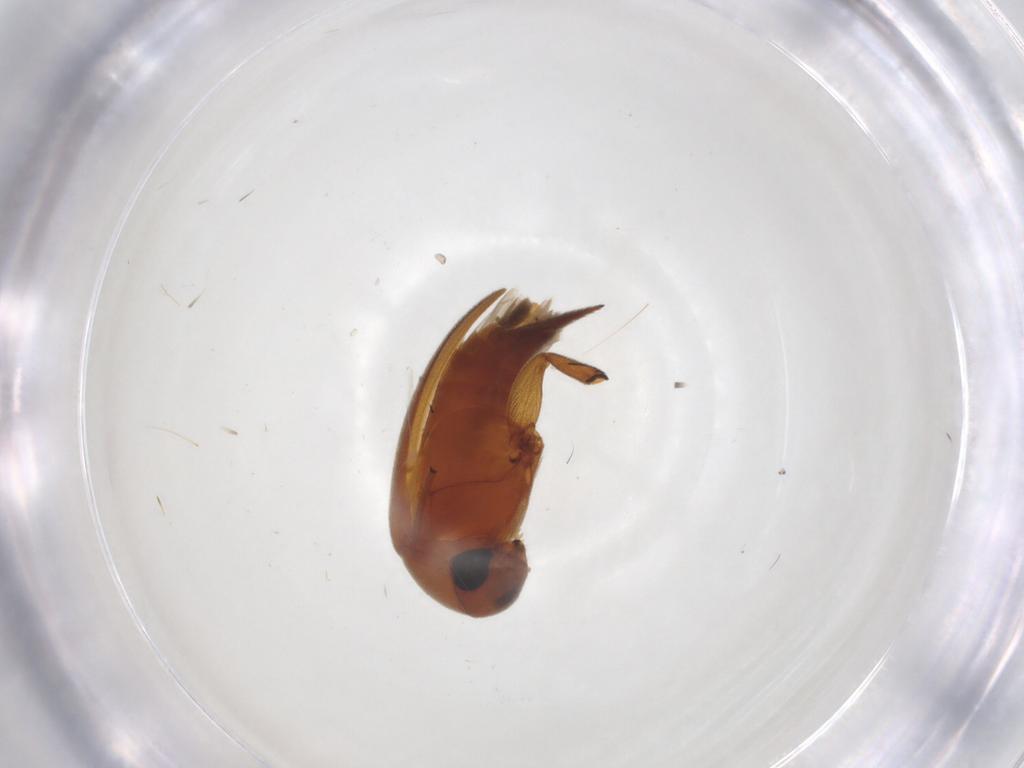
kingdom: Animalia
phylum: Arthropoda
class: Insecta
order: Coleoptera
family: Mordellidae
